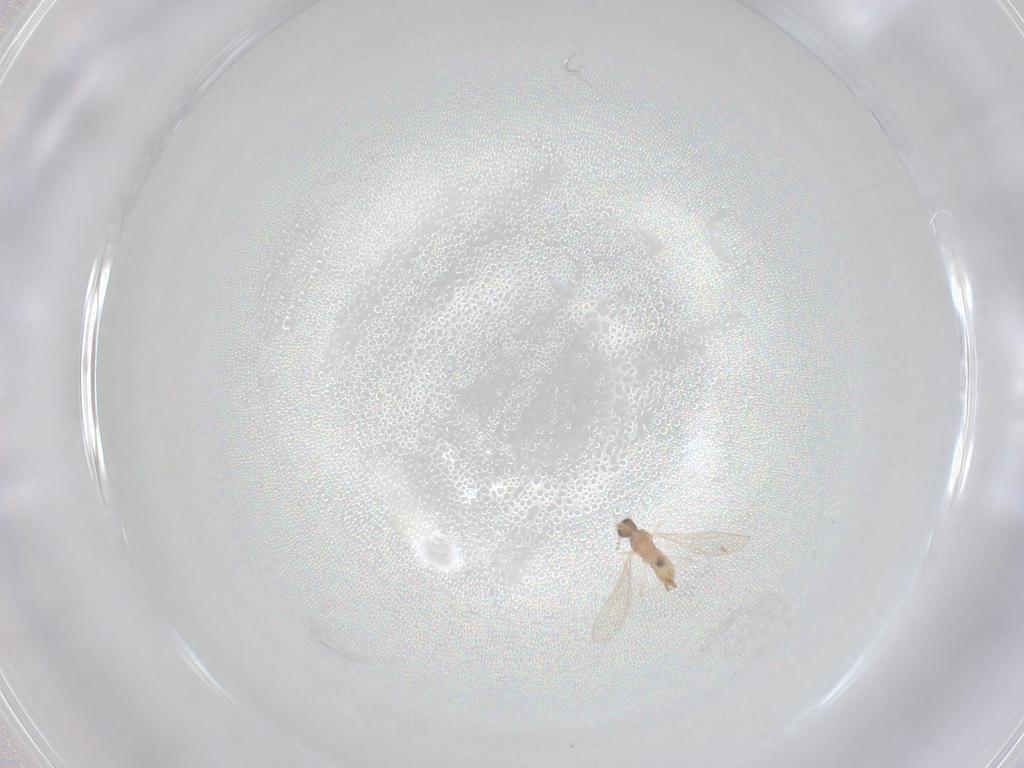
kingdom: Animalia
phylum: Arthropoda
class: Insecta
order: Diptera
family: Cecidomyiidae
